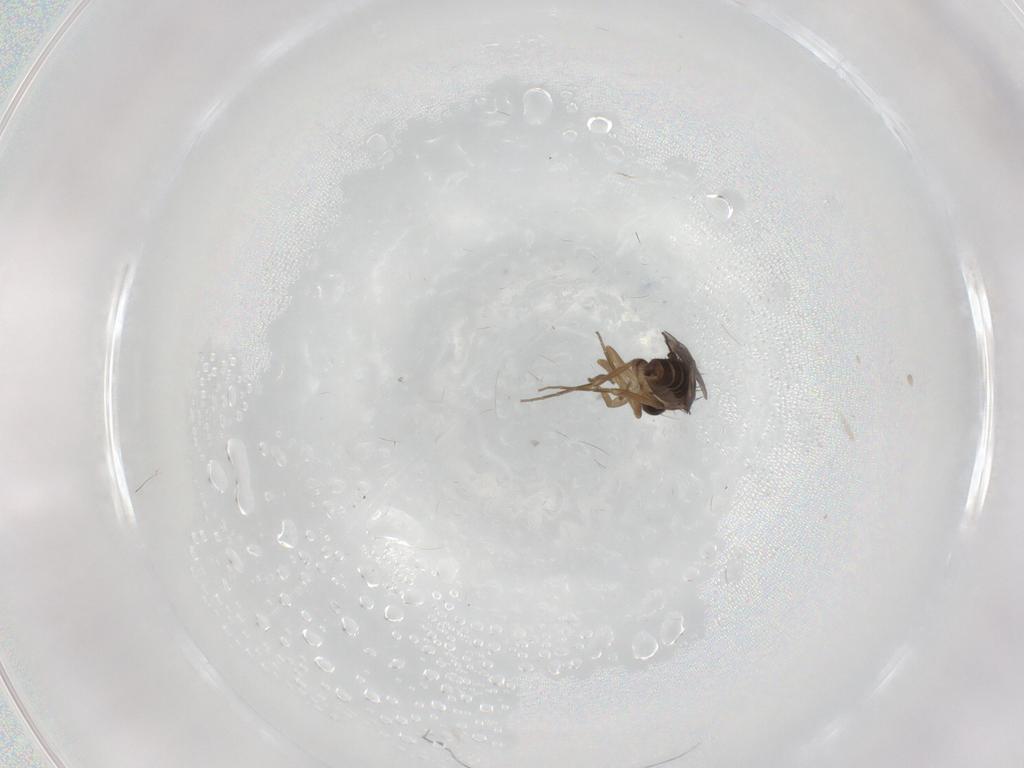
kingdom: Animalia
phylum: Arthropoda
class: Insecta
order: Diptera
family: Phoridae
